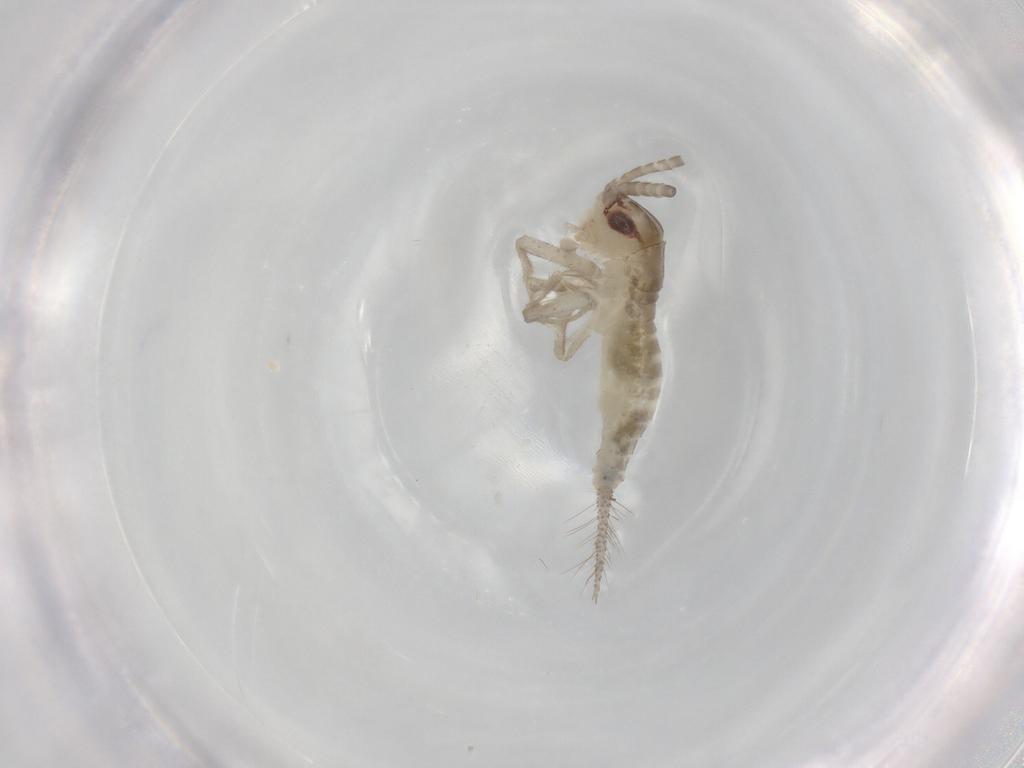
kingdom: Animalia
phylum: Arthropoda
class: Insecta
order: Orthoptera
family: Gryllidae
